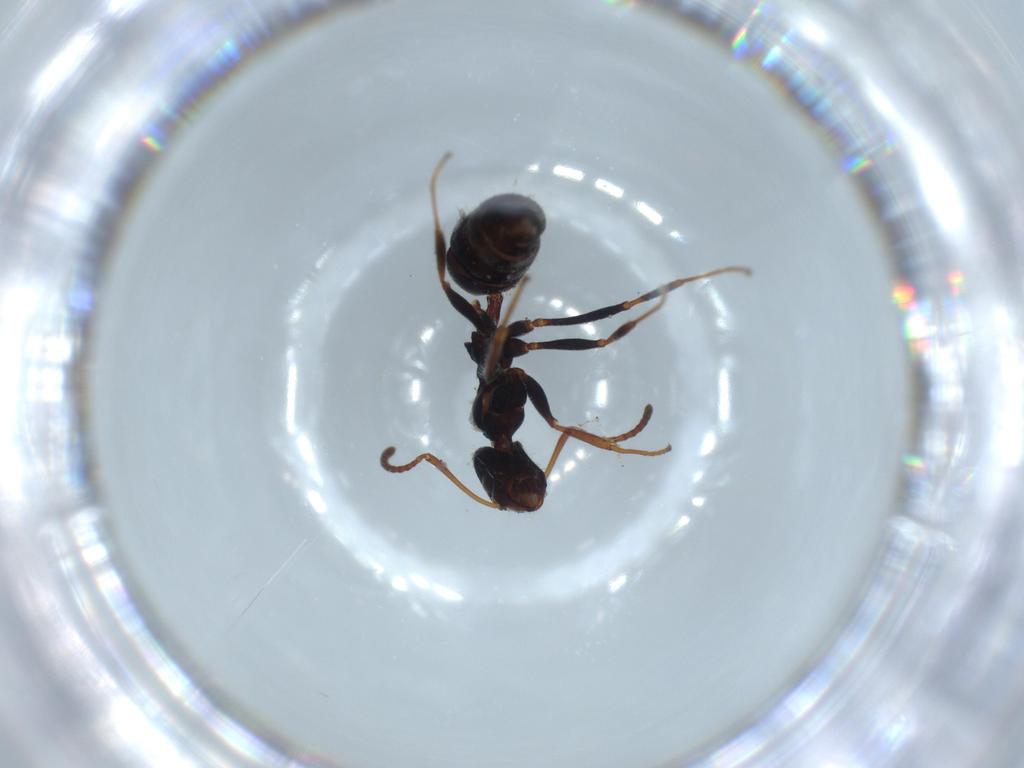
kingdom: Animalia
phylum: Arthropoda
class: Insecta
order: Hymenoptera
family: Formicidae
